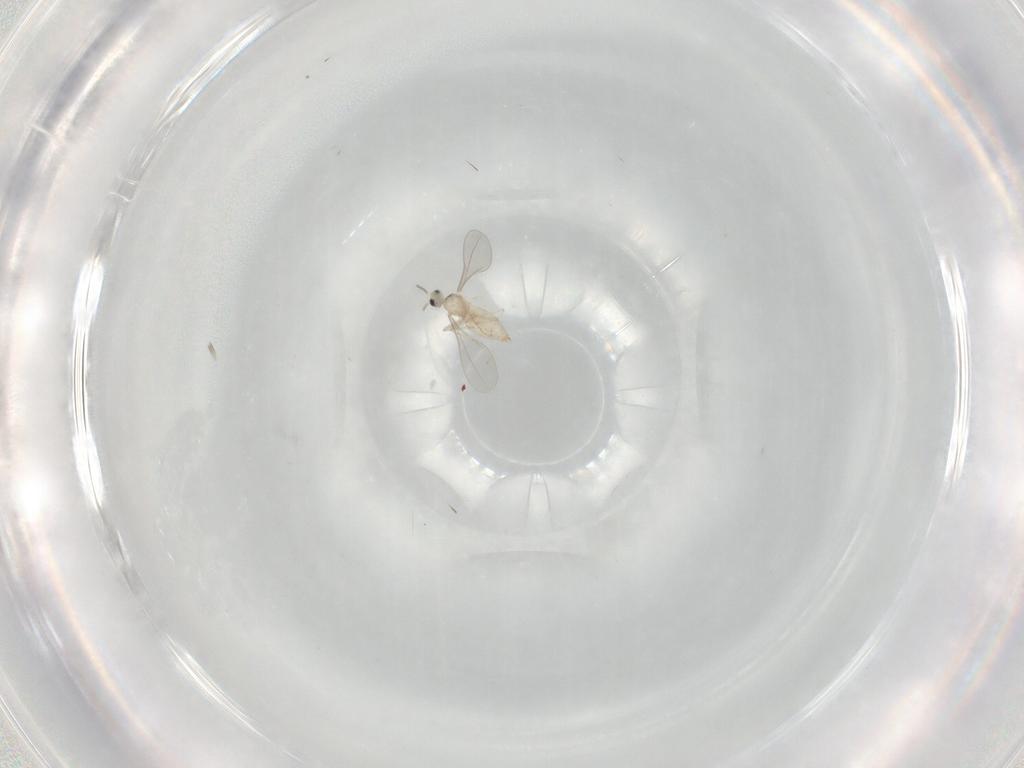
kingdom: Animalia
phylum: Arthropoda
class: Insecta
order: Diptera
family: Cecidomyiidae
